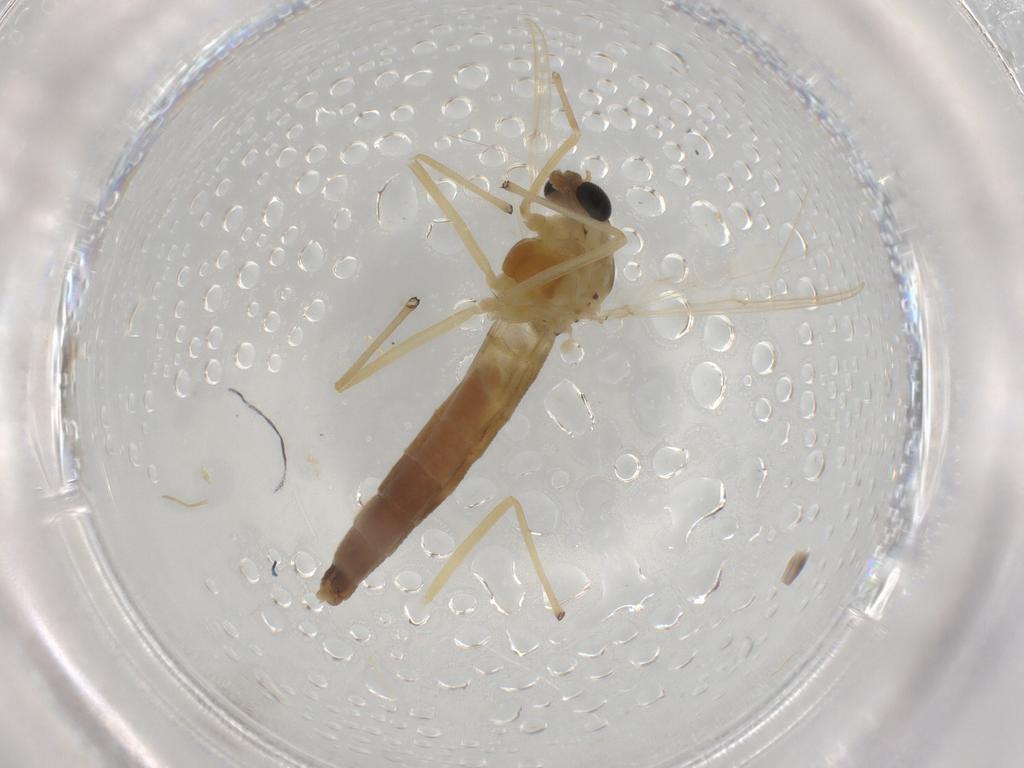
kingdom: Animalia
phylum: Arthropoda
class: Insecta
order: Diptera
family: Chloropidae
